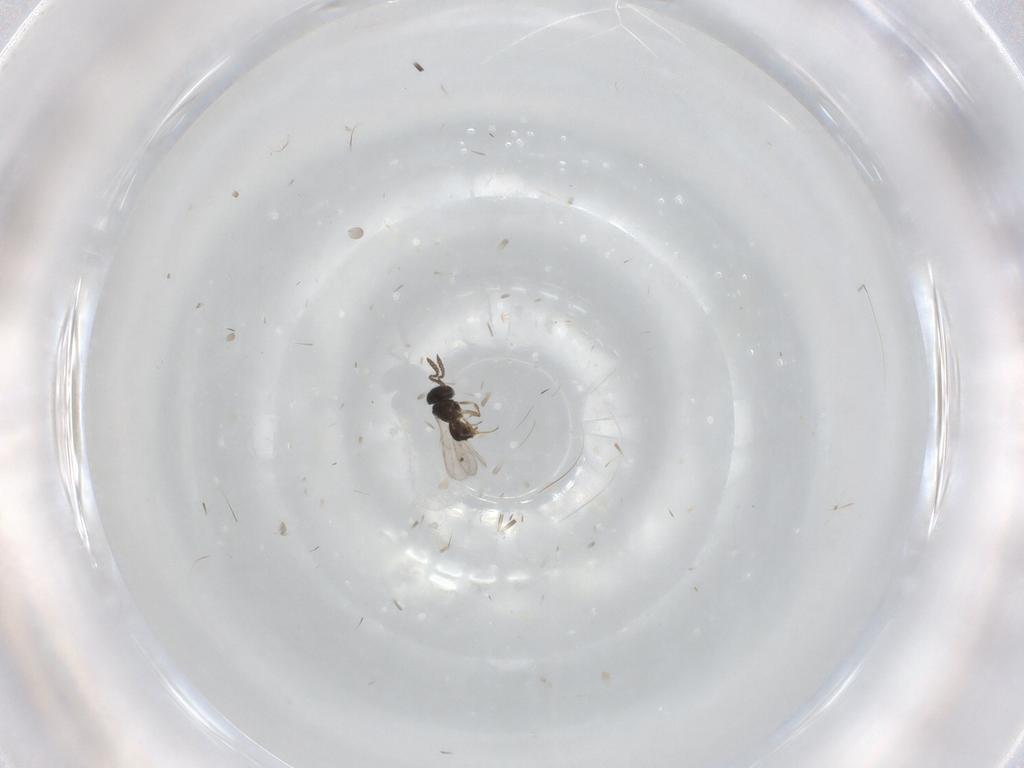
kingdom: Animalia
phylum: Arthropoda
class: Insecta
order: Hymenoptera
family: Scelionidae
